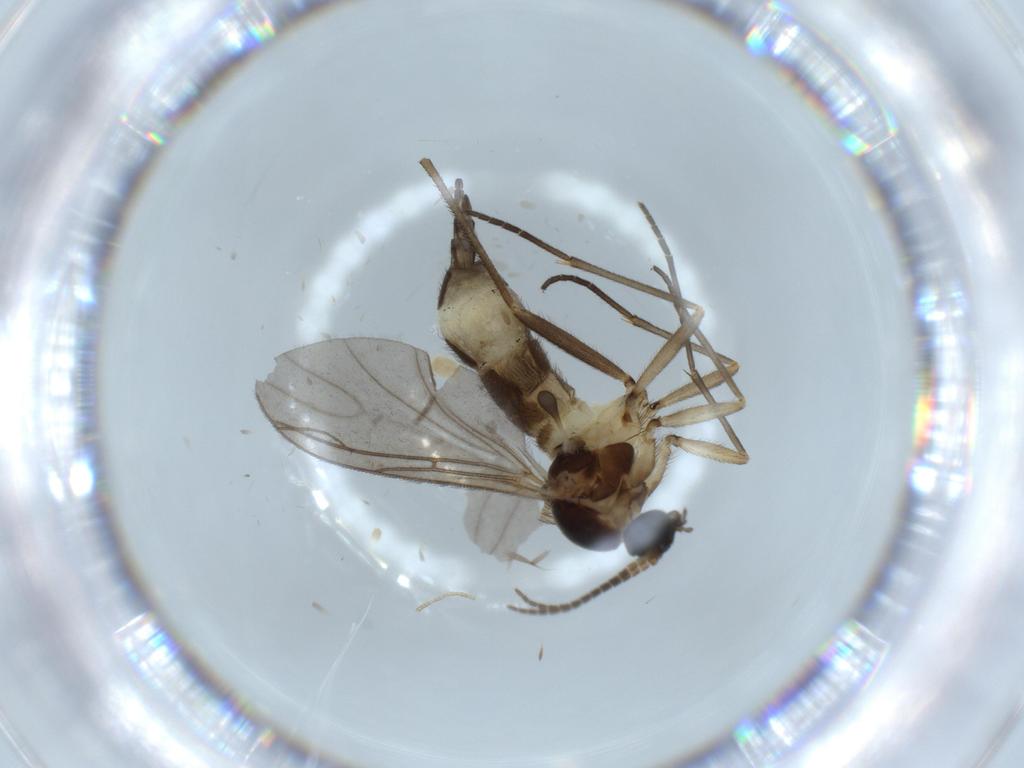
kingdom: Animalia
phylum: Arthropoda
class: Insecta
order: Diptera
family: Sciaridae
